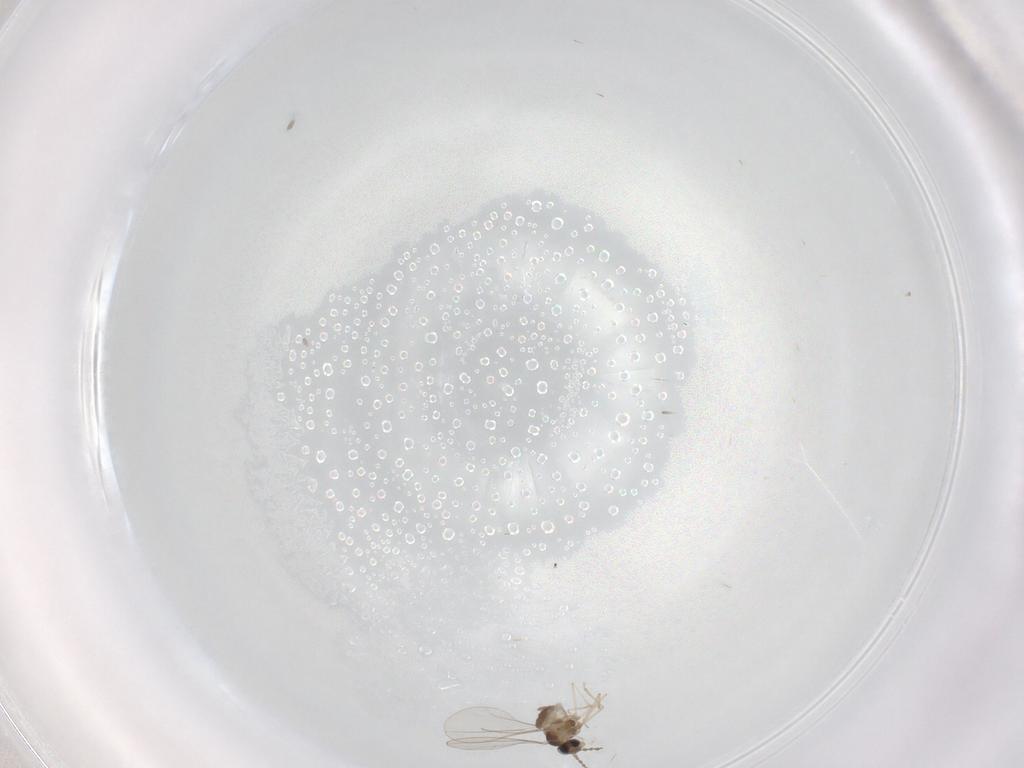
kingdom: Animalia
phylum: Arthropoda
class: Insecta
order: Diptera
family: Cecidomyiidae
